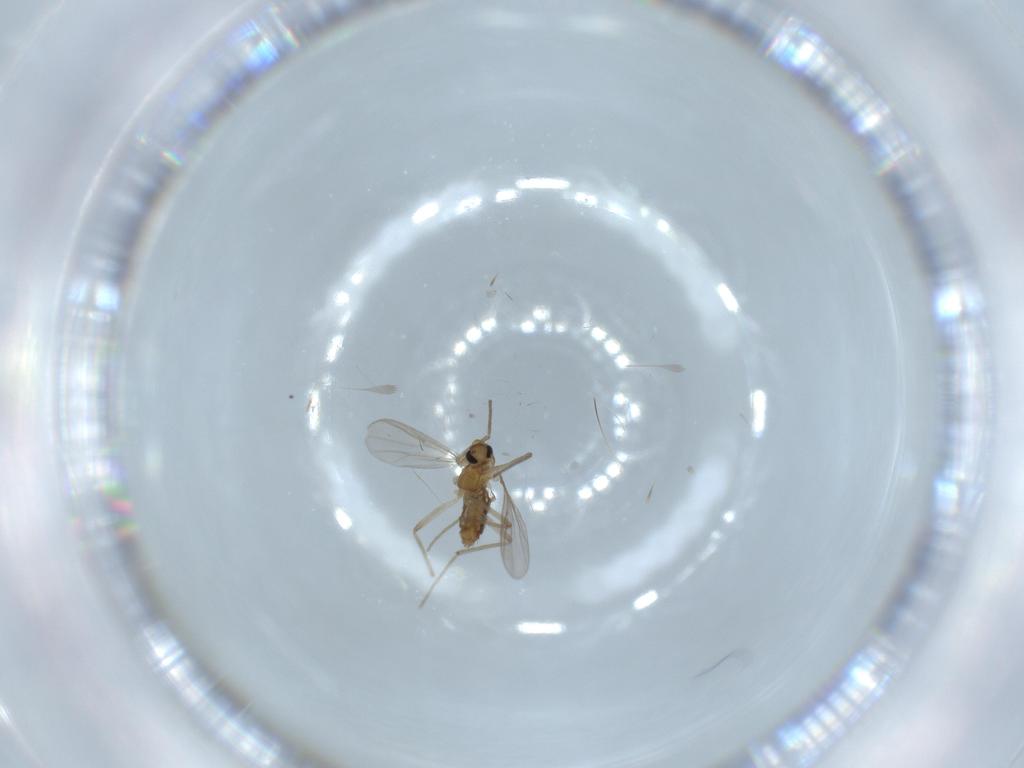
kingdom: Animalia
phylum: Arthropoda
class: Insecta
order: Diptera
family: Chironomidae
